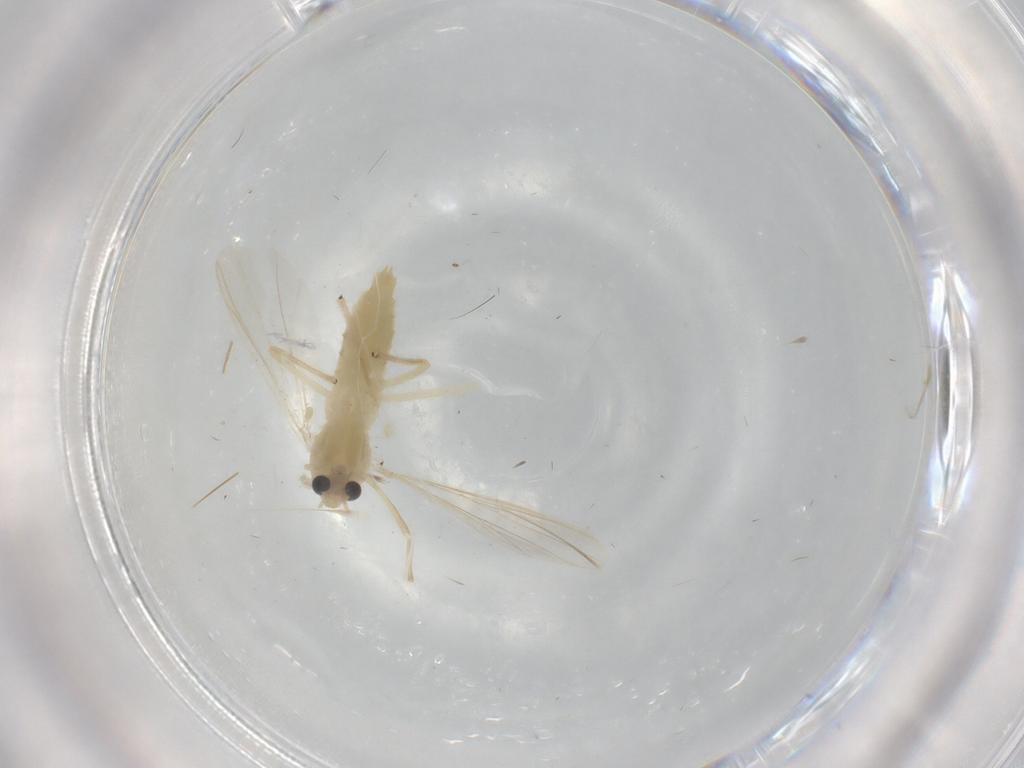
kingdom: Animalia
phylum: Arthropoda
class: Insecta
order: Diptera
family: Chironomidae
